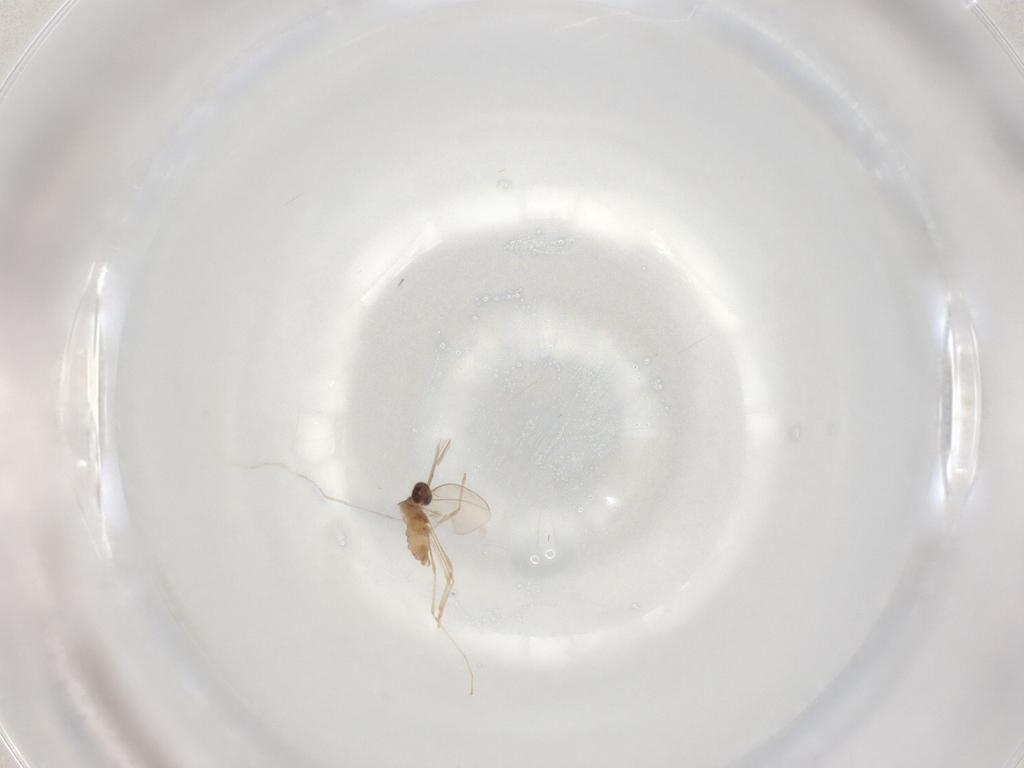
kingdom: Animalia
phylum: Arthropoda
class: Insecta
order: Diptera
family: Cecidomyiidae
